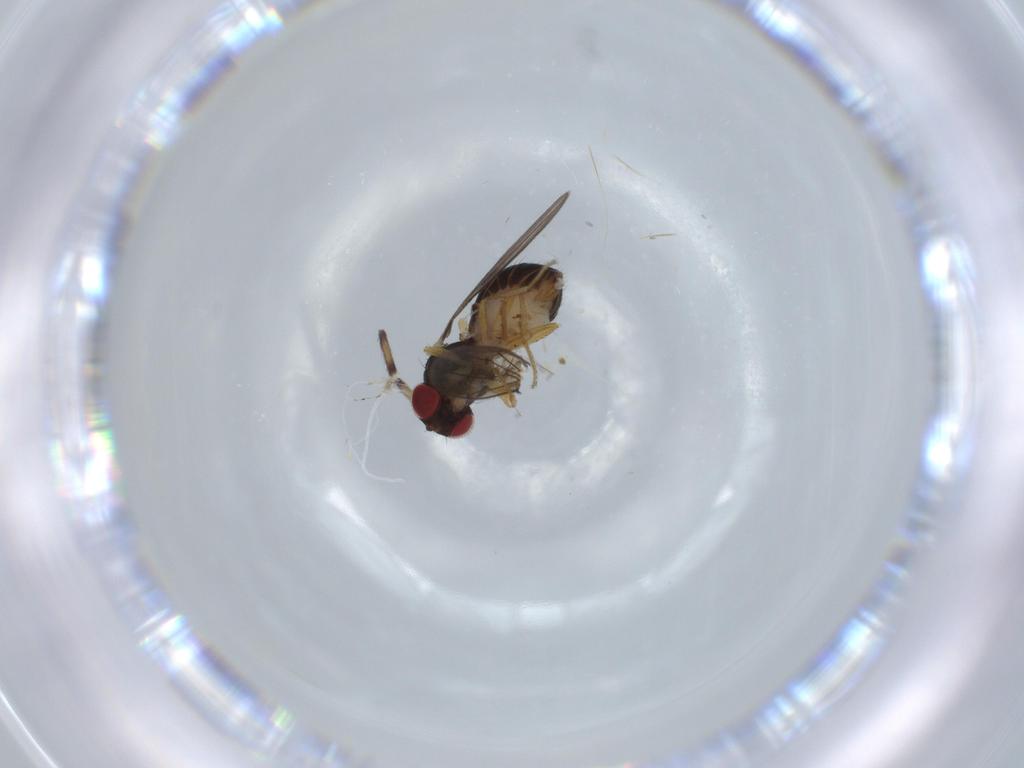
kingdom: Animalia
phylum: Arthropoda
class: Insecta
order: Diptera
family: Drosophilidae
